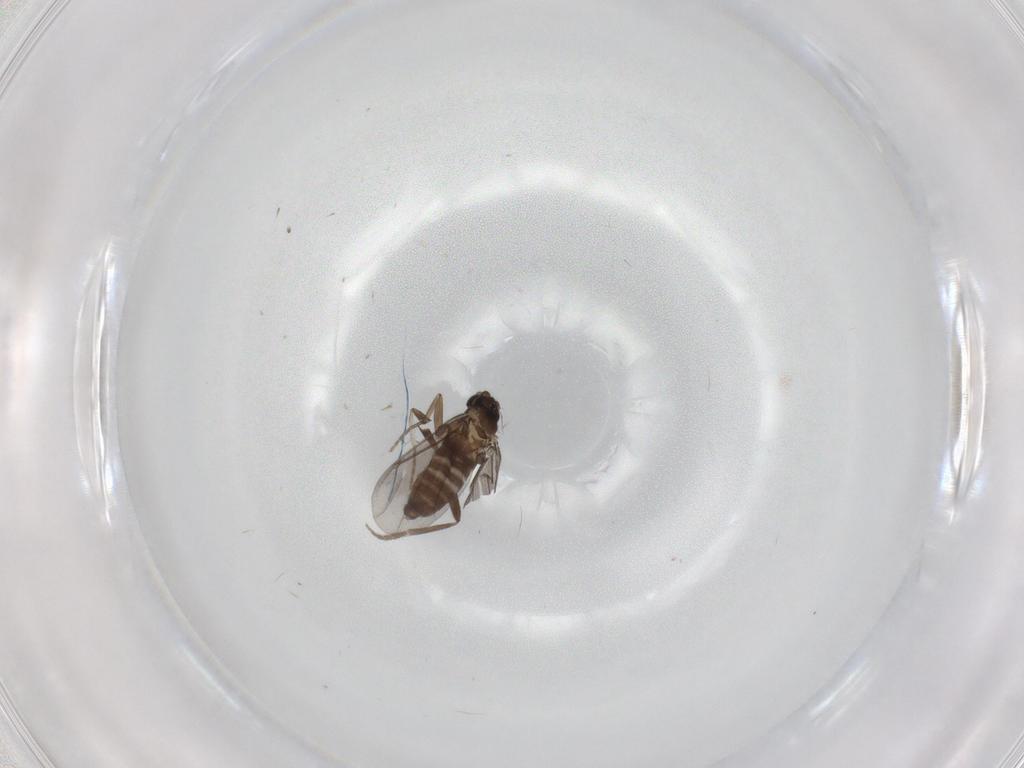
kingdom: Animalia
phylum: Arthropoda
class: Insecta
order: Diptera
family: Phoridae
